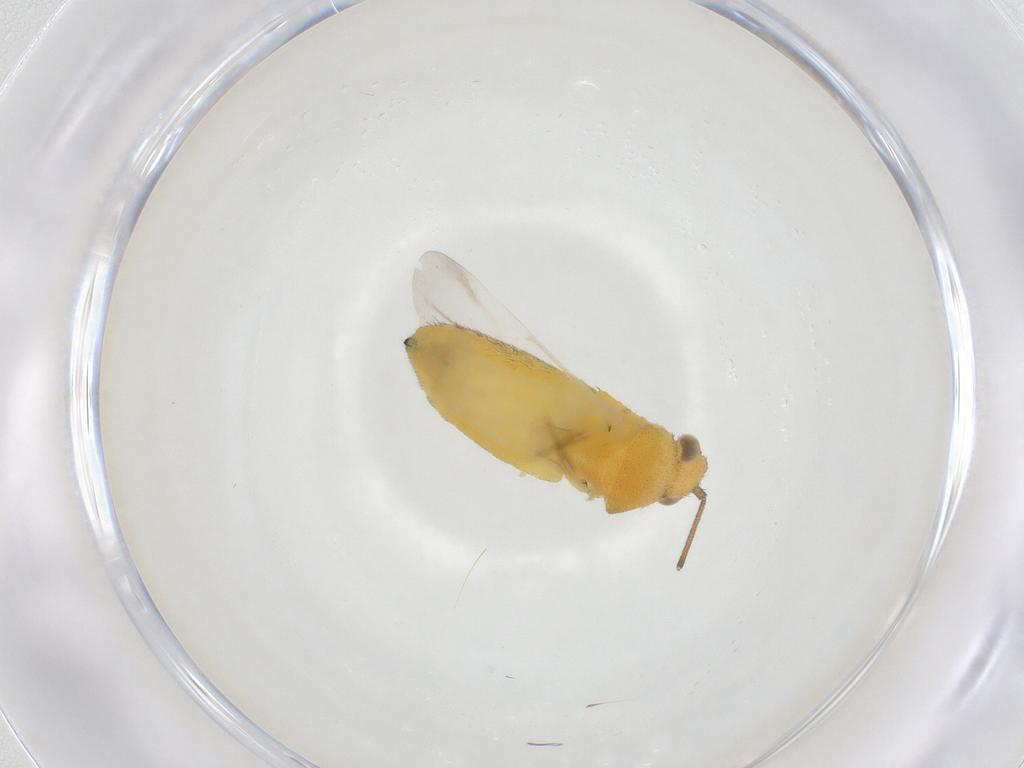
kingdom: Animalia
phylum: Arthropoda
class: Insecta
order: Hemiptera
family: Miridae
